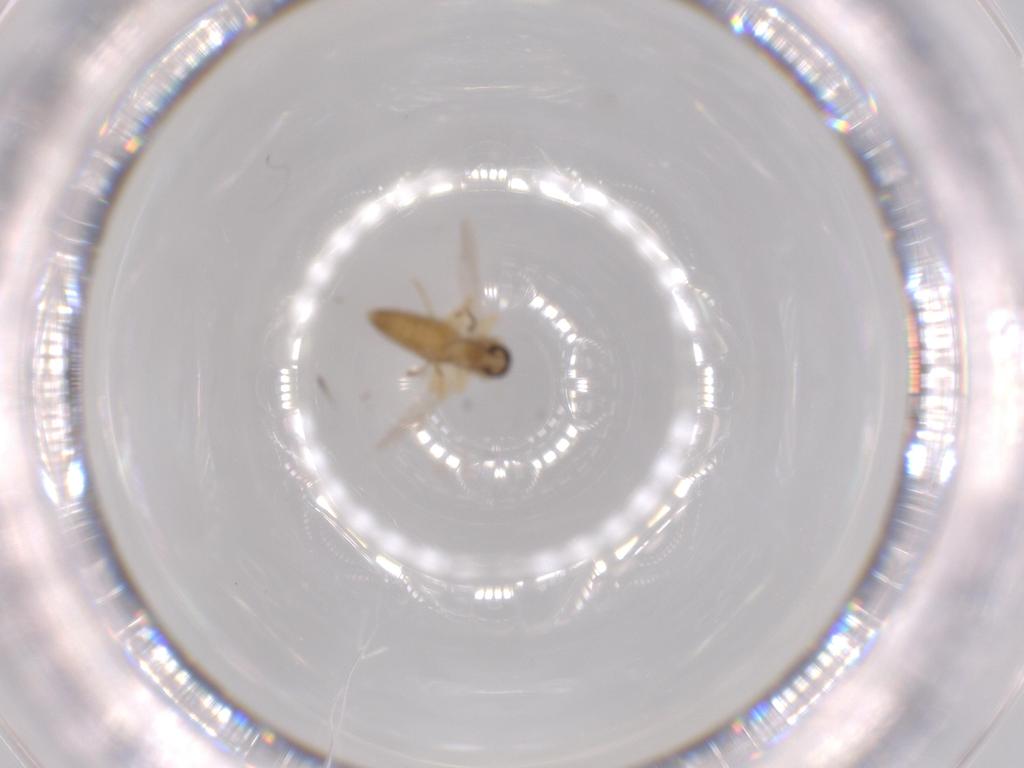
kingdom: Animalia
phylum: Arthropoda
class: Insecta
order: Diptera
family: Ceratopogonidae
